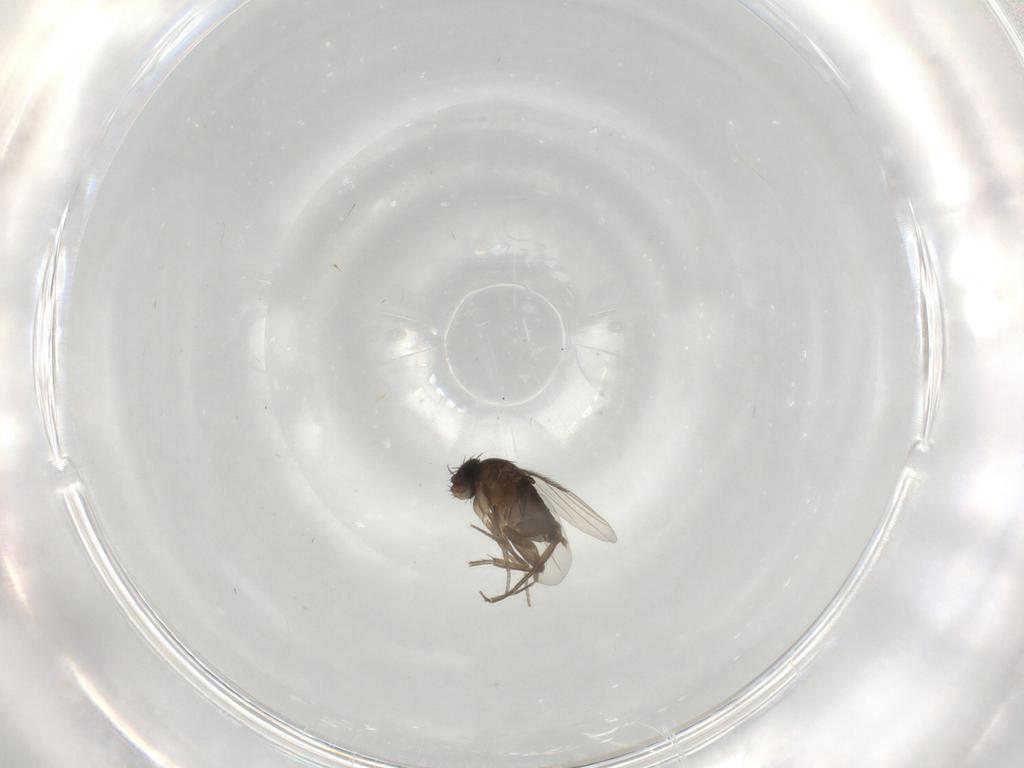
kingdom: Animalia
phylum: Arthropoda
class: Insecta
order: Diptera
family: Phoridae
